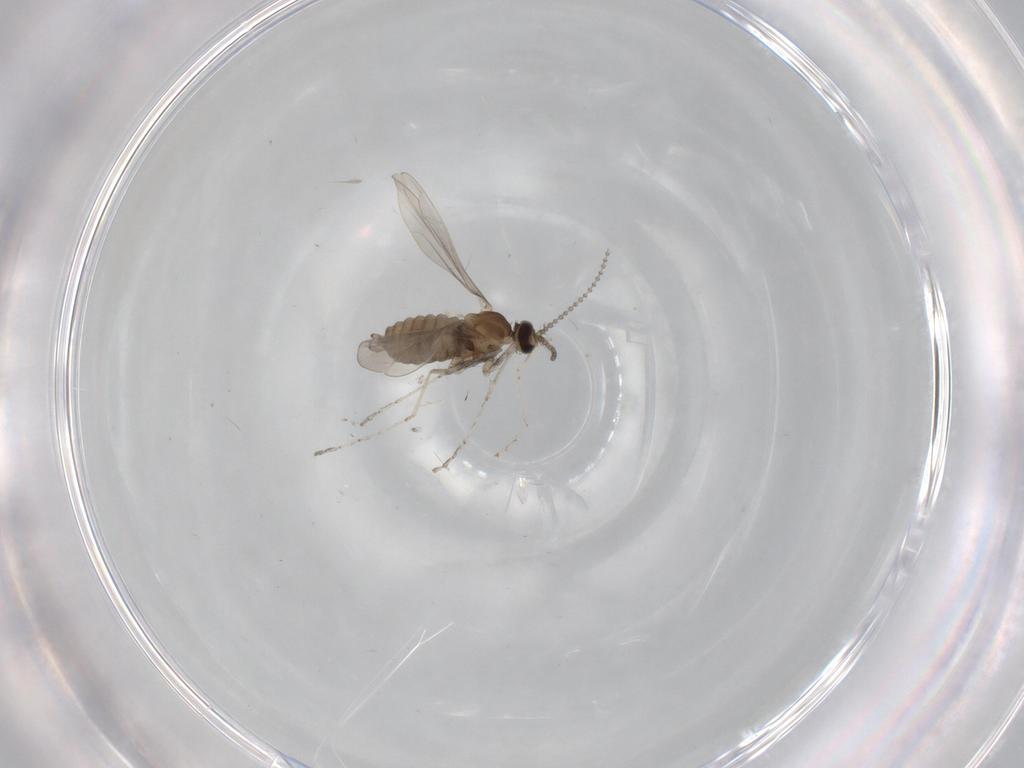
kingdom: Animalia
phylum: Arthropoda
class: Insecta
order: Diptera
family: Cecidomyiidae
